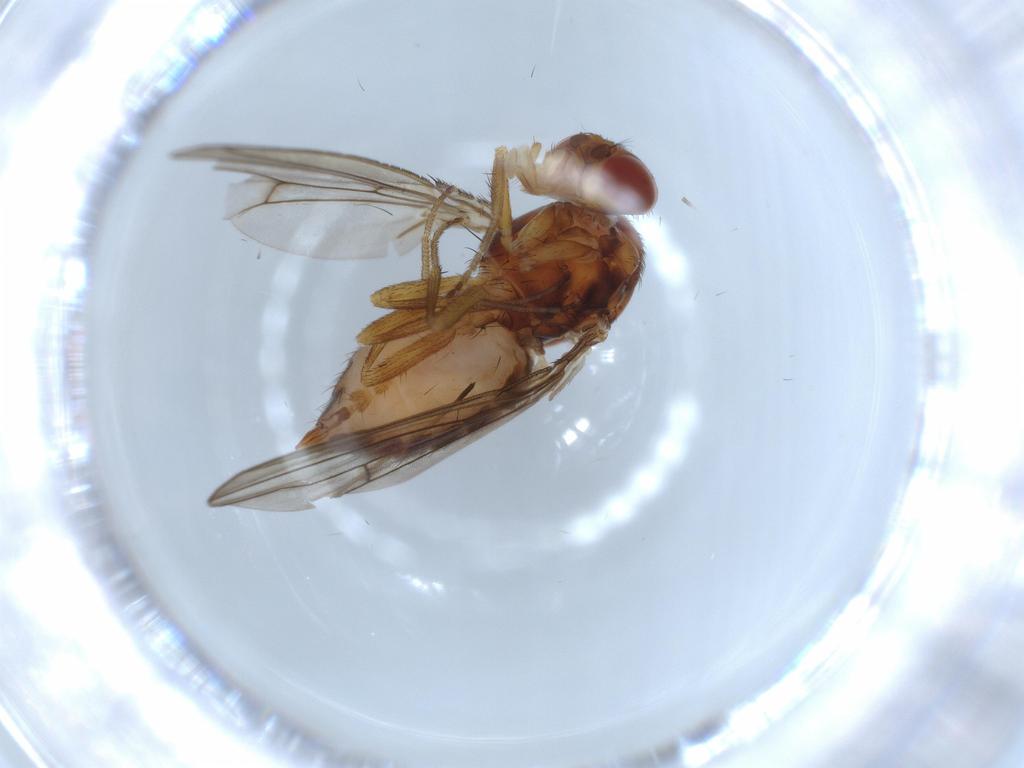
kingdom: Animalia
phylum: Arthropoda
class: Insecta
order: Diptera
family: Drosophilidae
